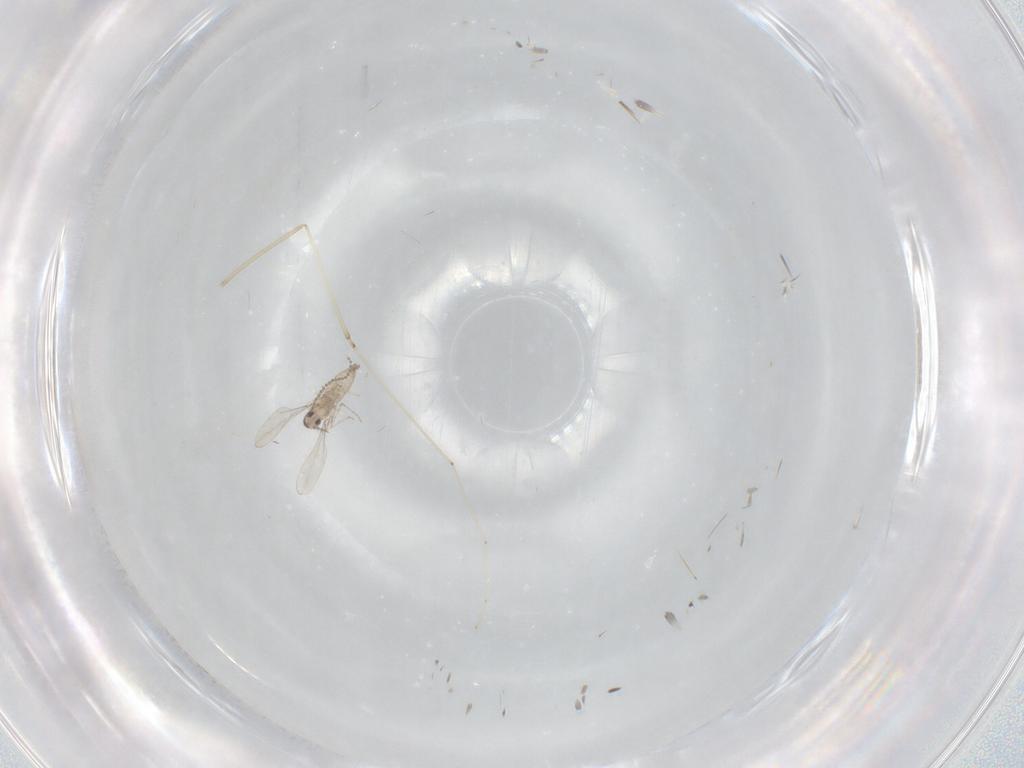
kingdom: Animalia
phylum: Arthropoda
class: Insecta
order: Diptera
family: Cecidomyiidae
